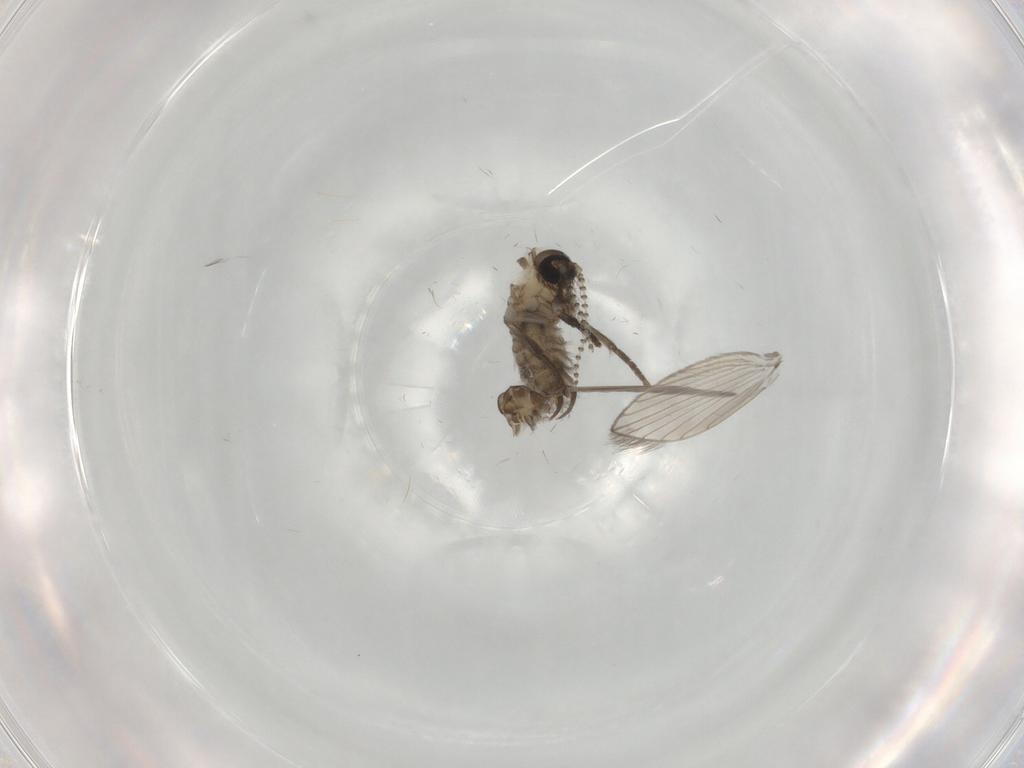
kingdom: Animalia
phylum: Arthropoda
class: Insecta
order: Diptera
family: Psychodidae
